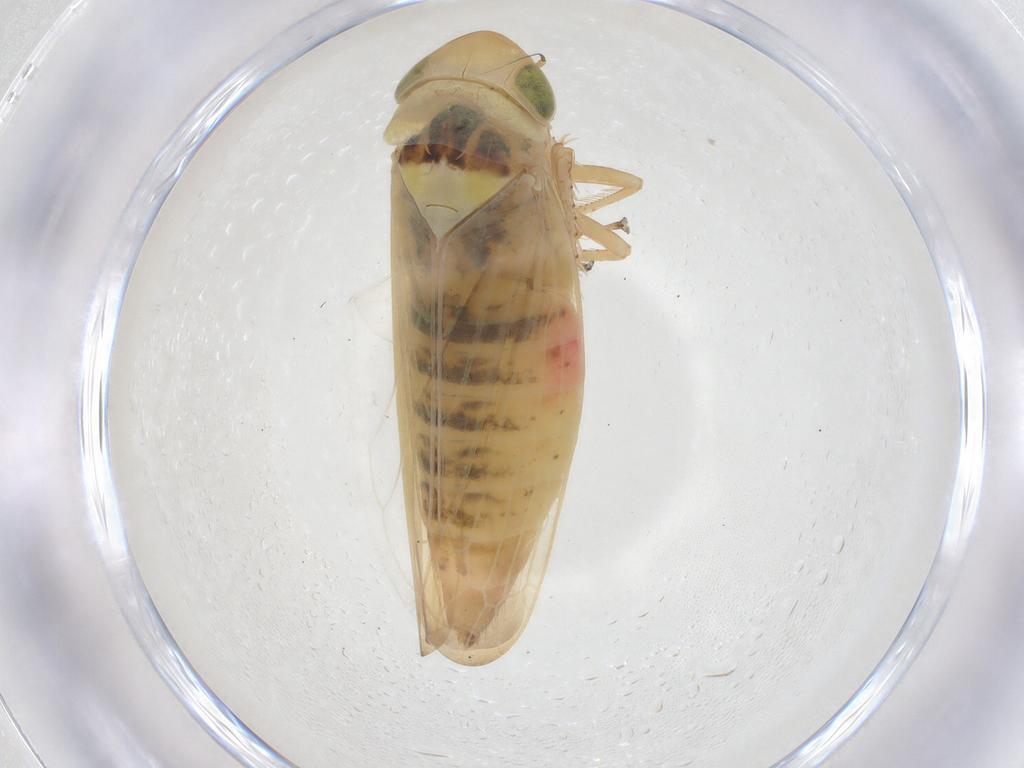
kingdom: Animalia
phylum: Arthropoda
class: Insecta
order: Hemiptera
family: Cicadellidae
